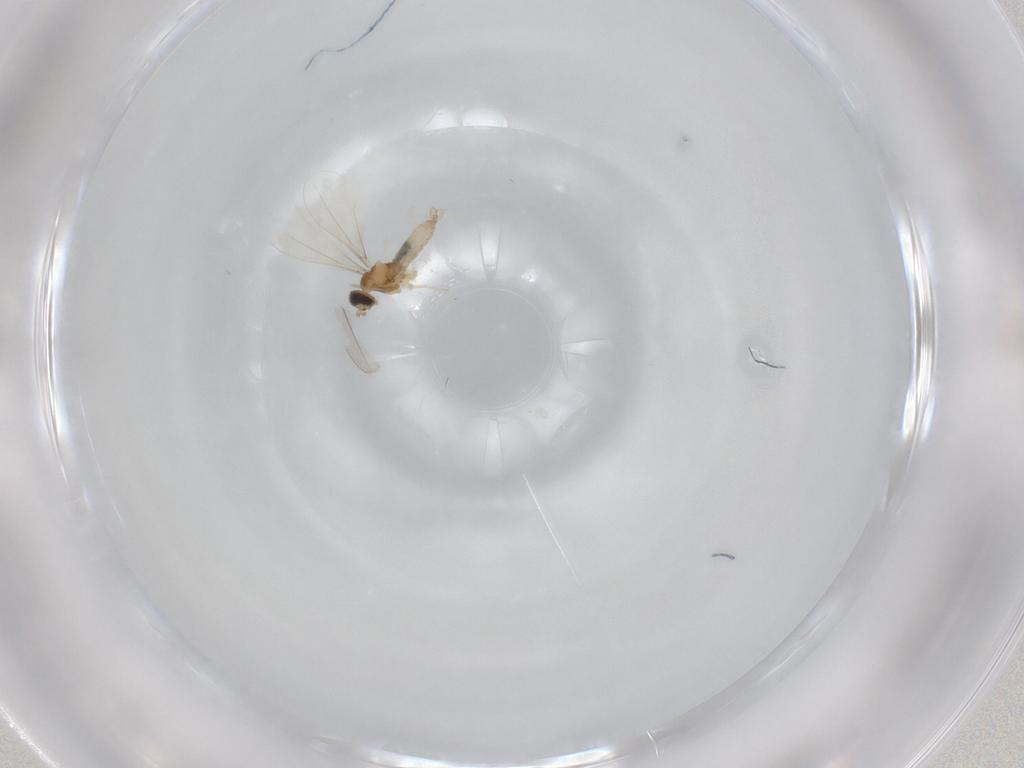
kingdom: Animalia
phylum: Arthropoda
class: Insecta
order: Diptera
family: Cecidomyiidae
